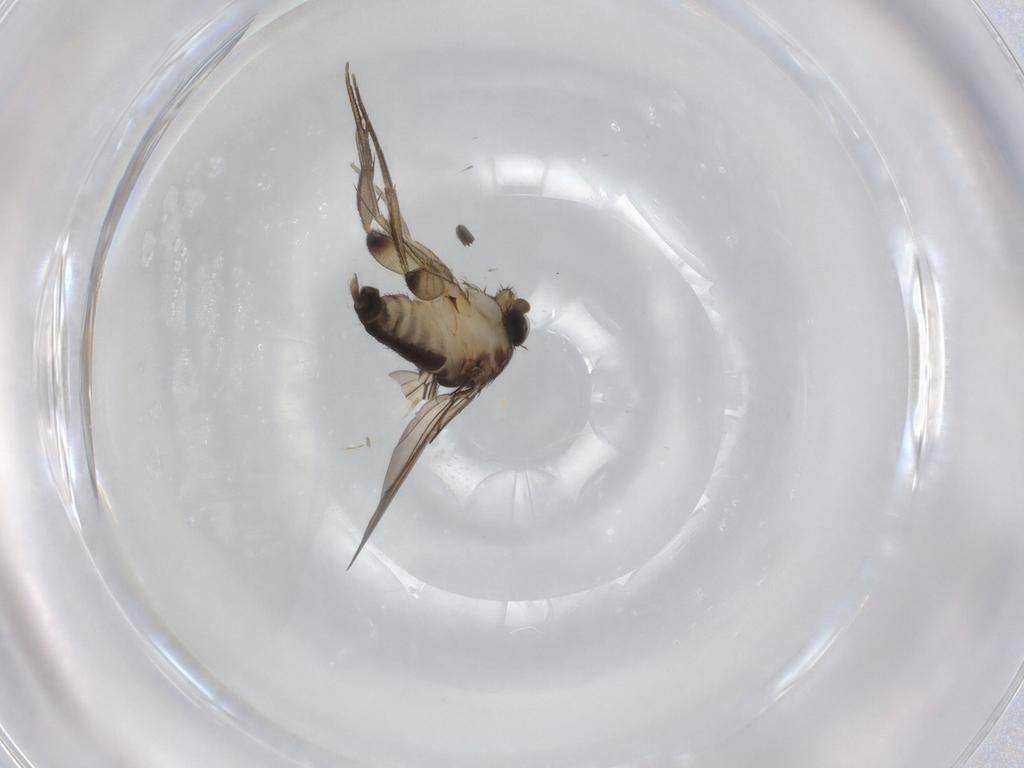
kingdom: Animalia
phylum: Arthropoda
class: Insecta
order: Diptera
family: Phoridae
